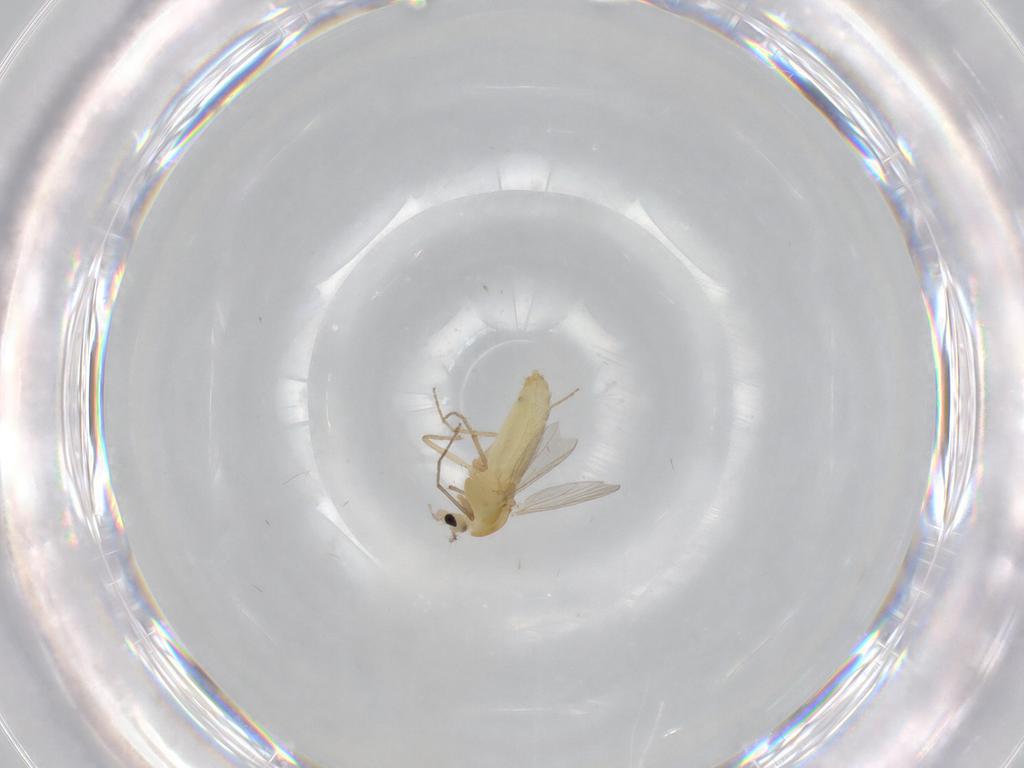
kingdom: Animalia
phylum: Arthropoda
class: Insecta
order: Diptera
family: Chironomidae
